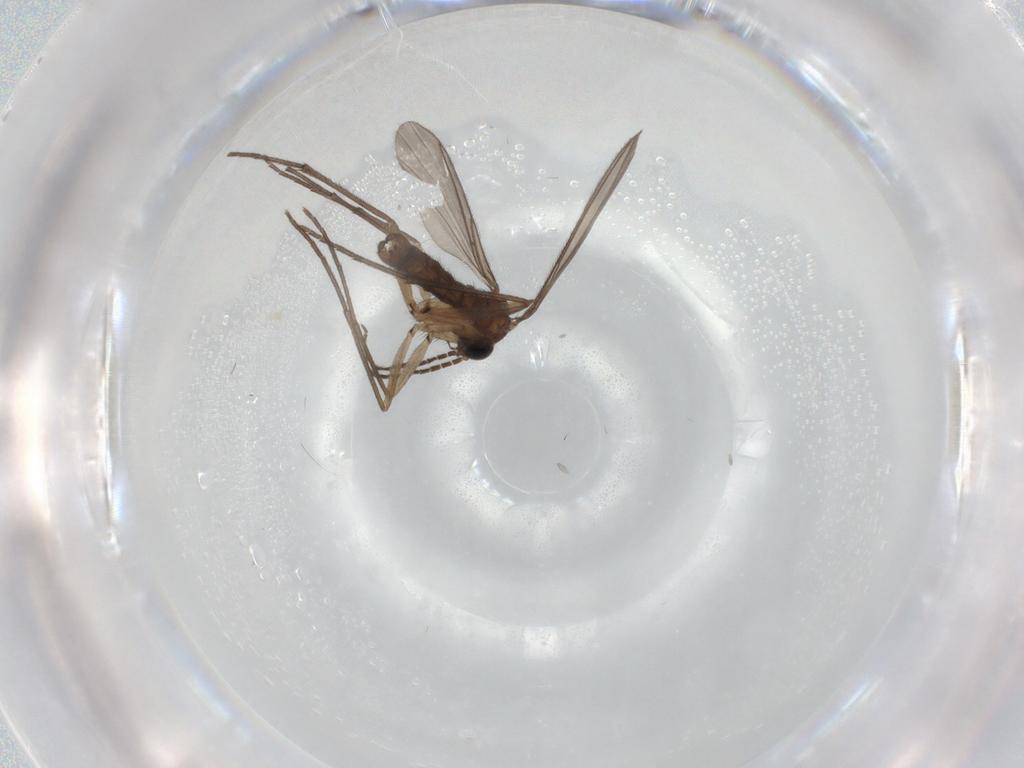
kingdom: Animalia
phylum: Arthropoda
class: Insecta
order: Diptera
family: Sciaridae
